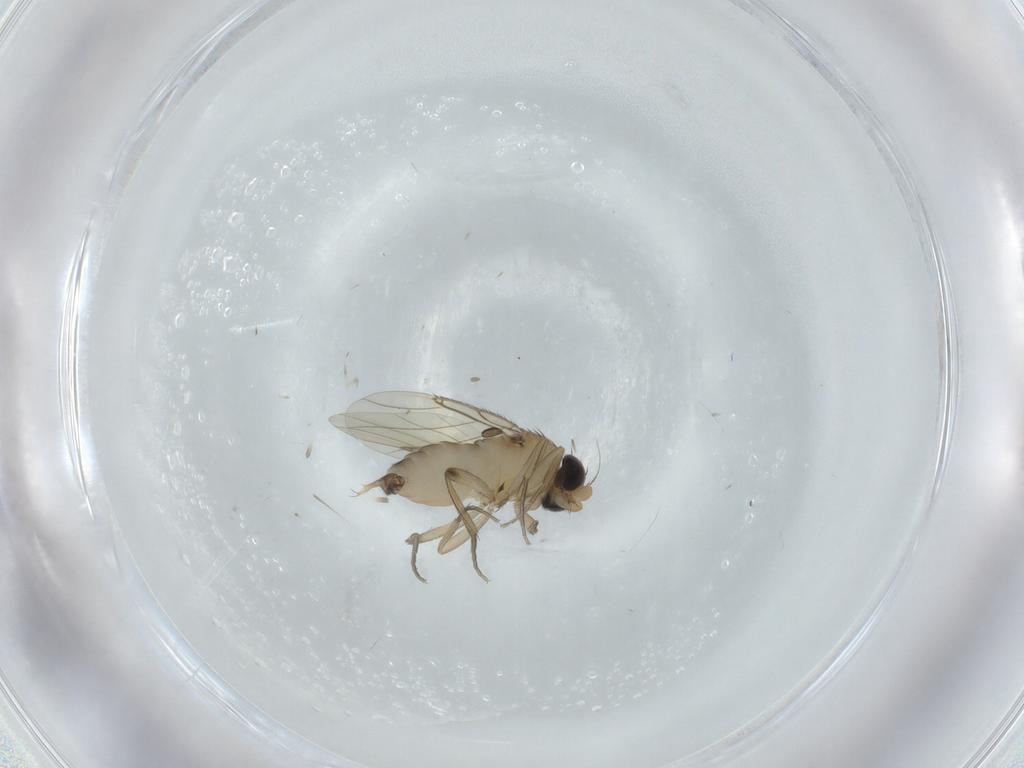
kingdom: Animalia
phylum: Arthropoda
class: Insecta
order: Diptera
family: Phoridae
